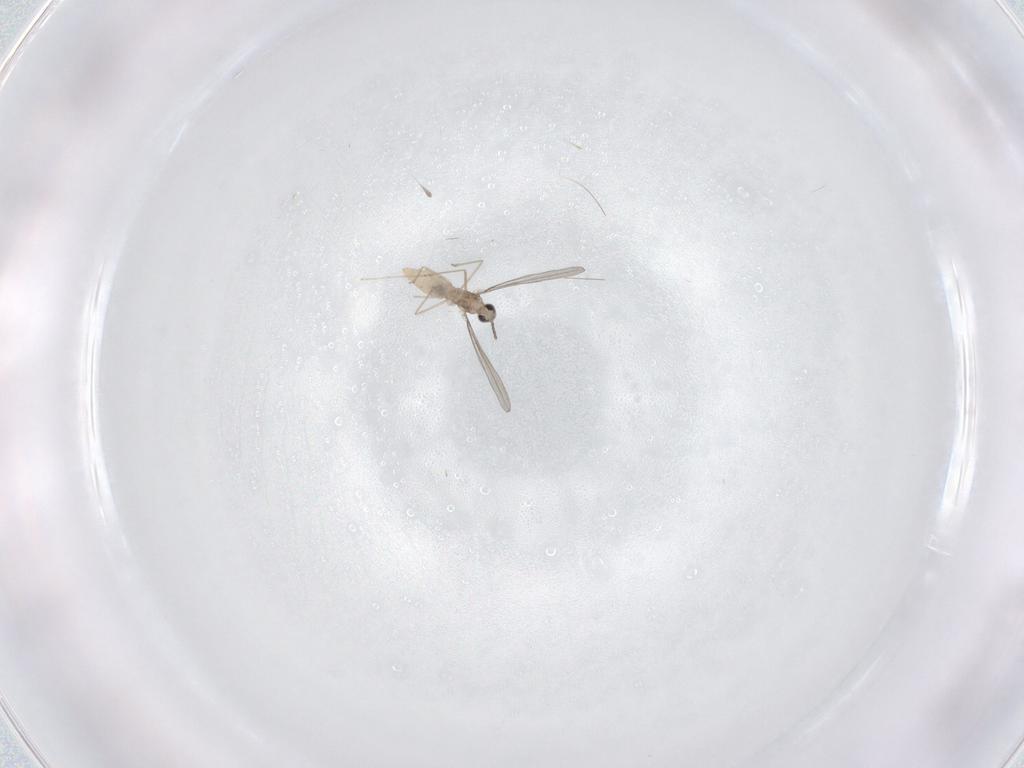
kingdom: Animalia
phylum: Arthropoda
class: Insecta
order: Diptera
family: Cecidomyiidae
